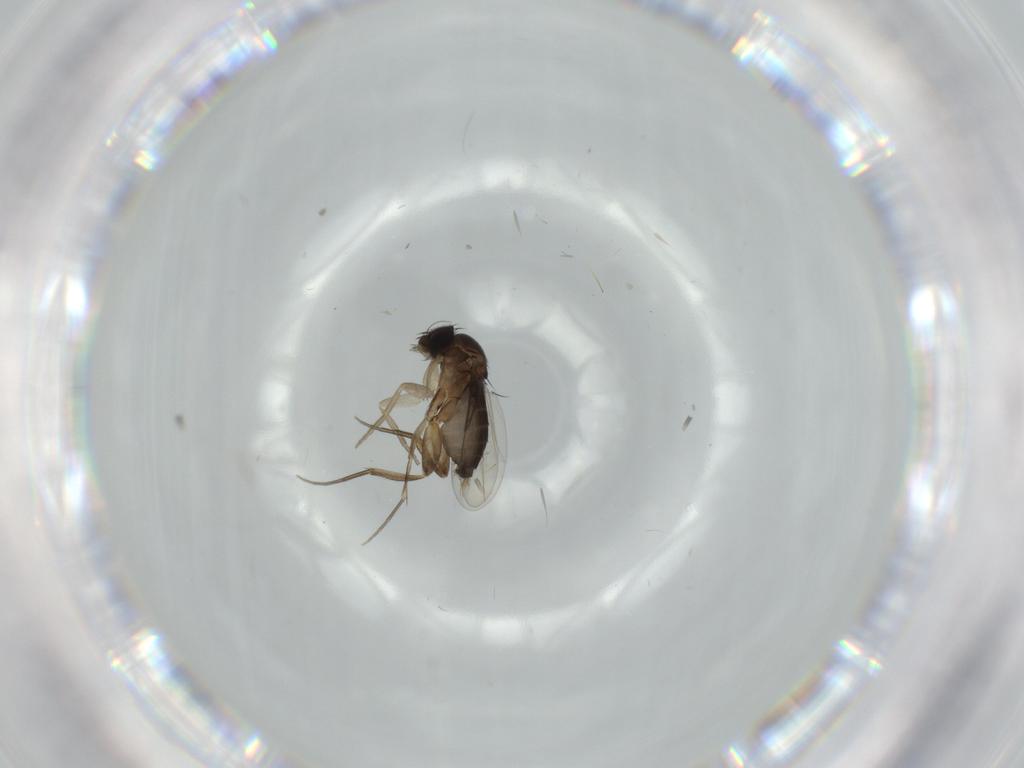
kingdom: Animalia
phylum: Arthropoda
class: Insecta
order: Diptera
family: Phoridae
